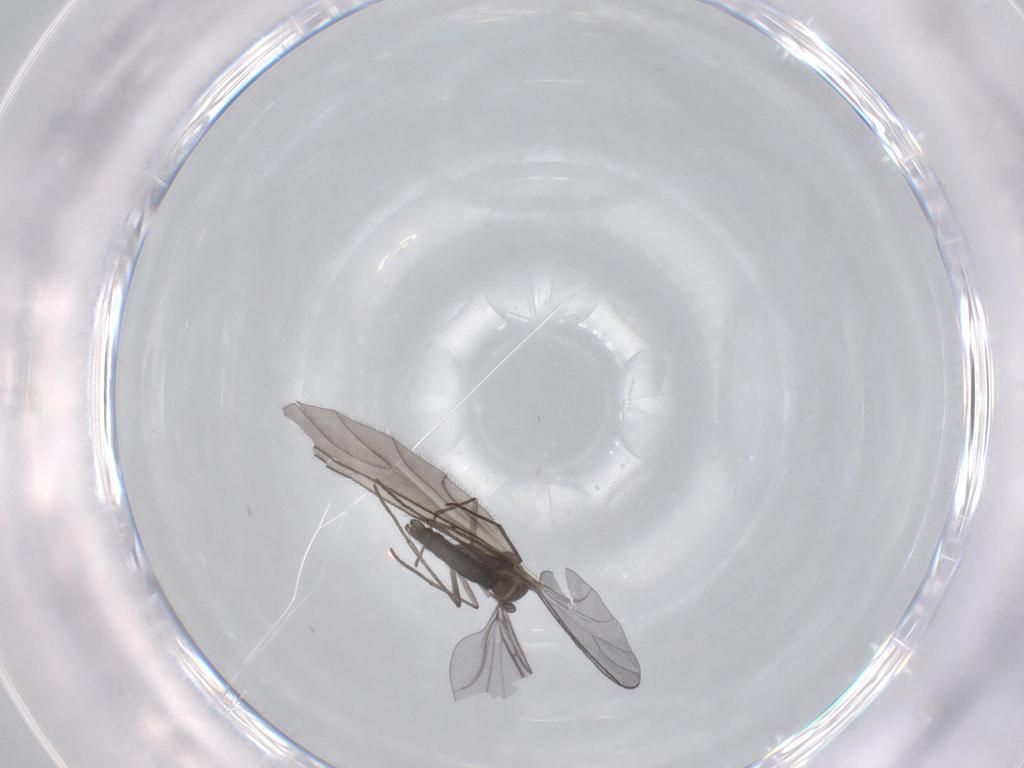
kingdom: Animalia
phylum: Arthropoda
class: Insecta
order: Diptera
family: Sciaridae
